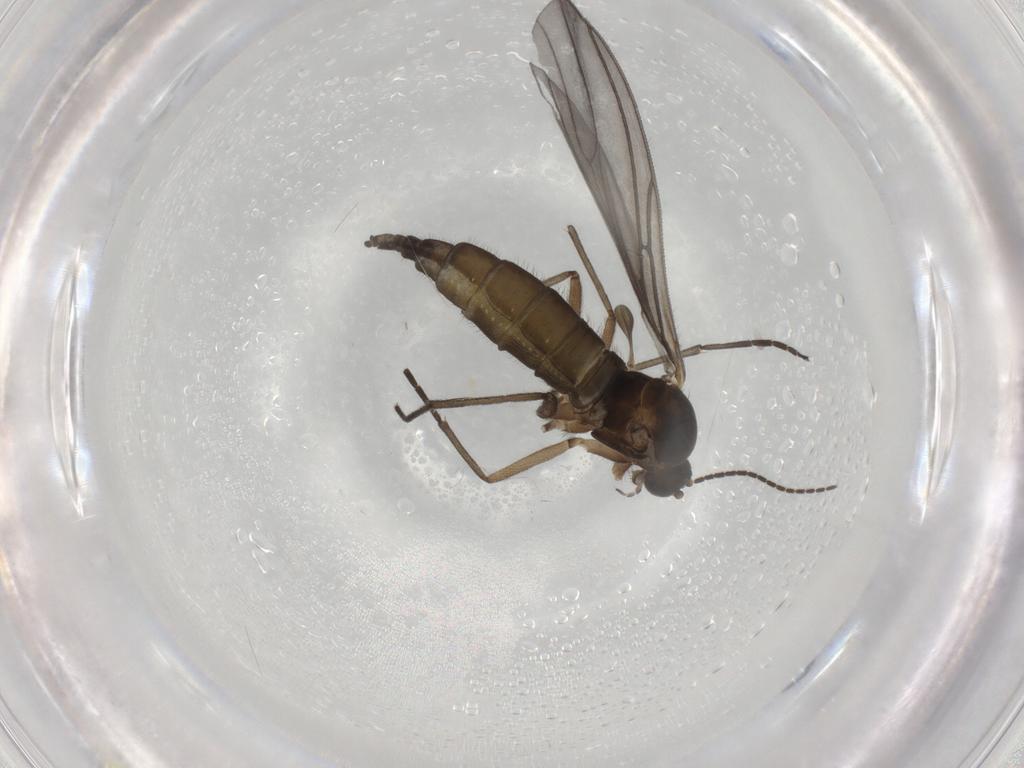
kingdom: Animalia
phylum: Arthropoda
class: Insecta
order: Diptera
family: Sciaridae
